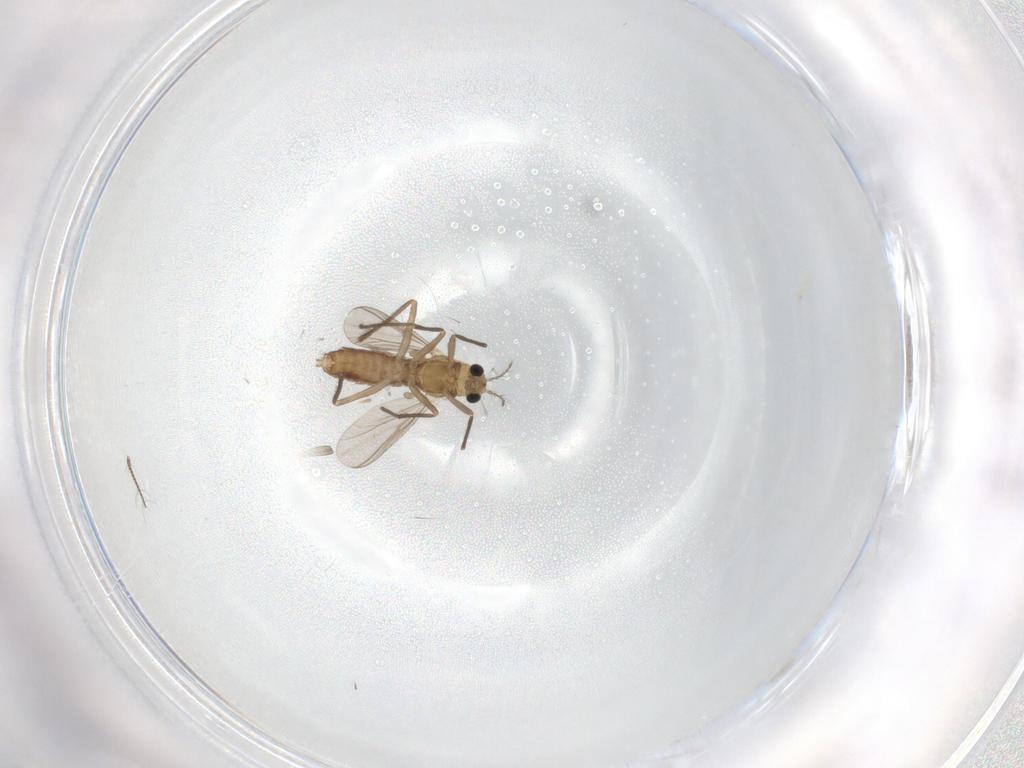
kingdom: Animalia
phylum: Arthropoda
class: Insecta
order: Diptera
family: Chironomidae
